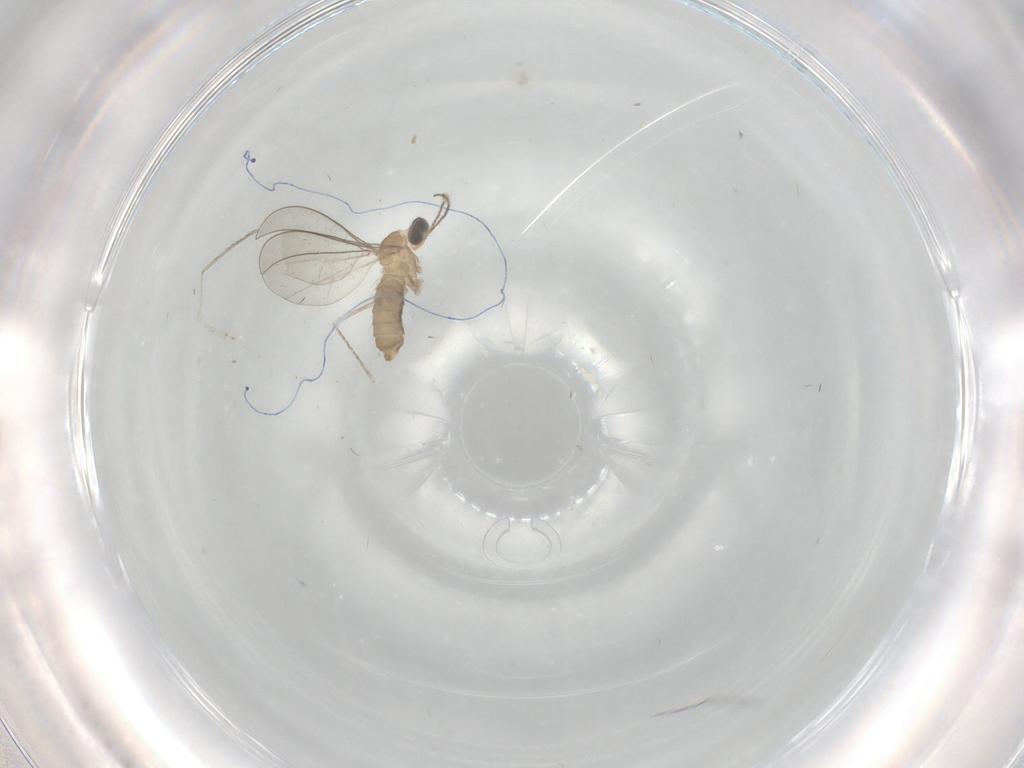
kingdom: Animalia
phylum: Arthropoda
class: Insecta
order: Diptera
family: Cecidomyiidae
